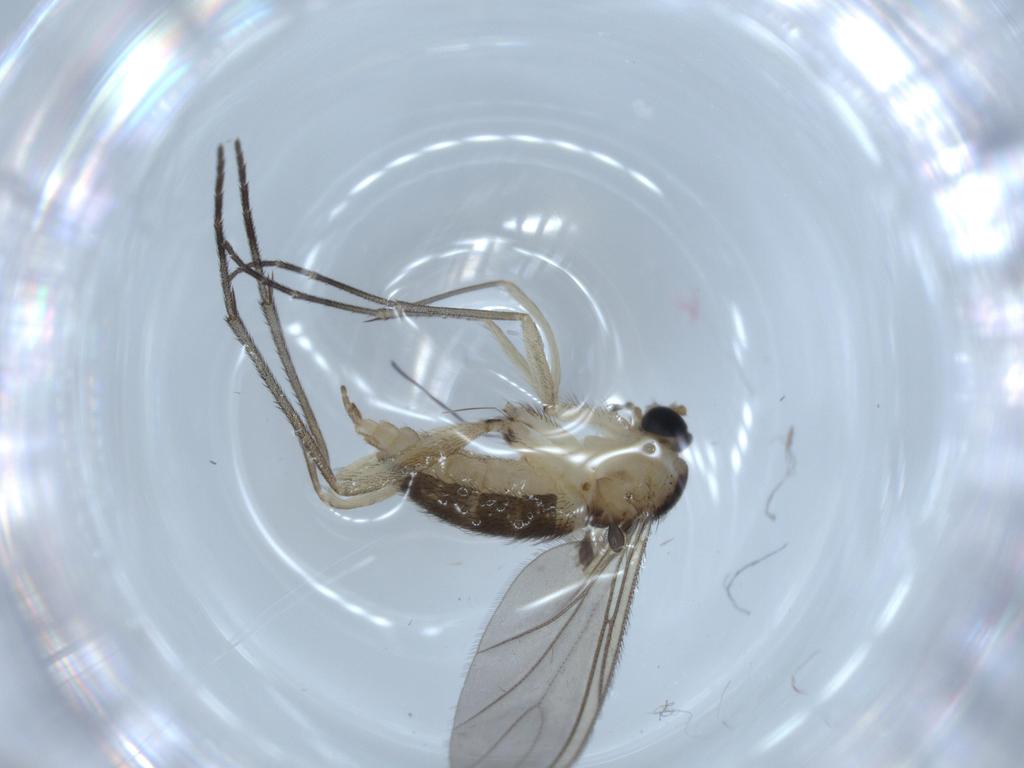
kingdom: Animalia
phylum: Arthropoda
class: Insecta
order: Diptera
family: Sciaridae
